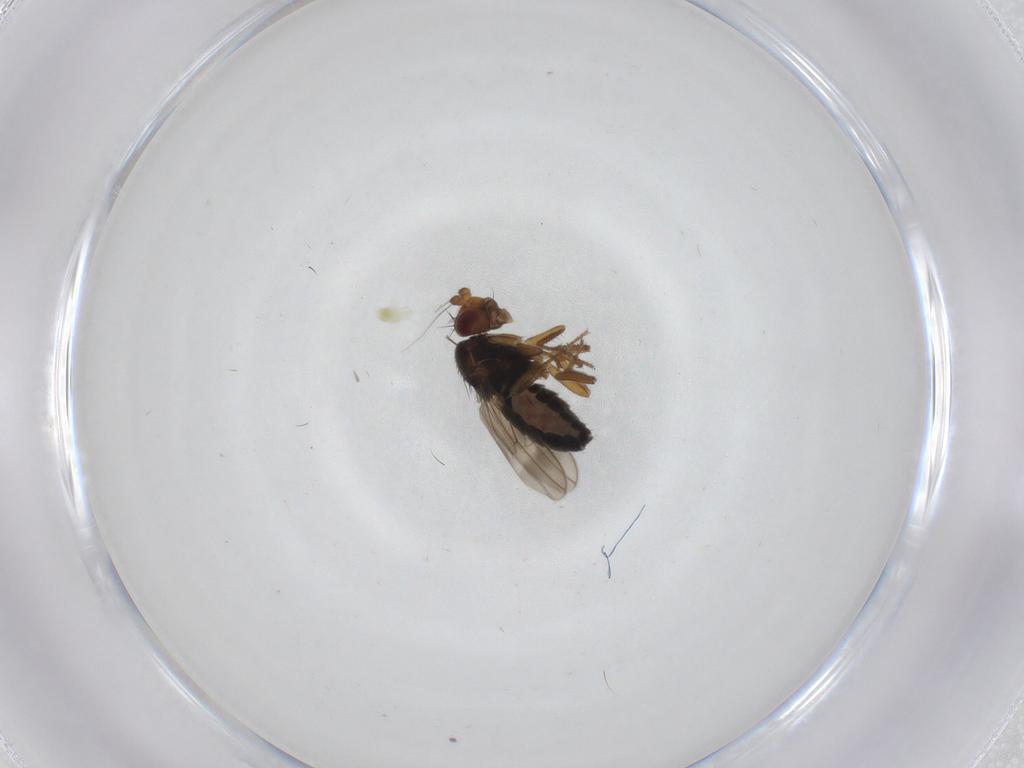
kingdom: Animalia
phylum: Arthropoda
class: Insecta
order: Diptera
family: Sphaeroceridae
